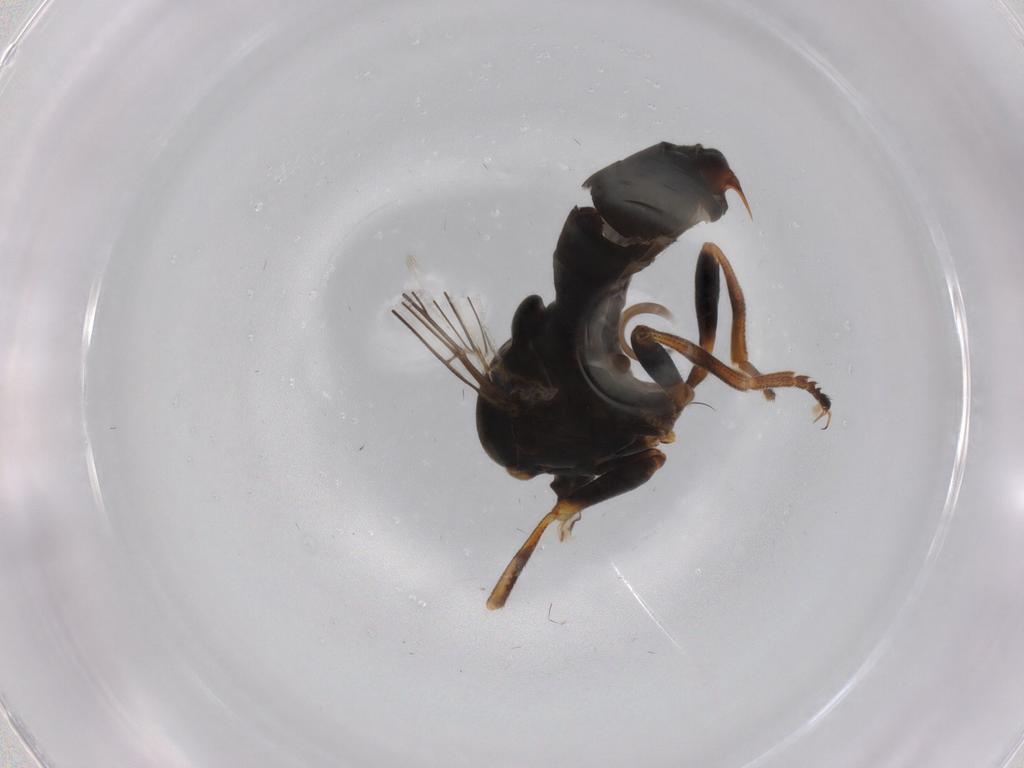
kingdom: Animalia
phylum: Arthropoda
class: Insecta
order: Diptera
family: Pipunculidae
